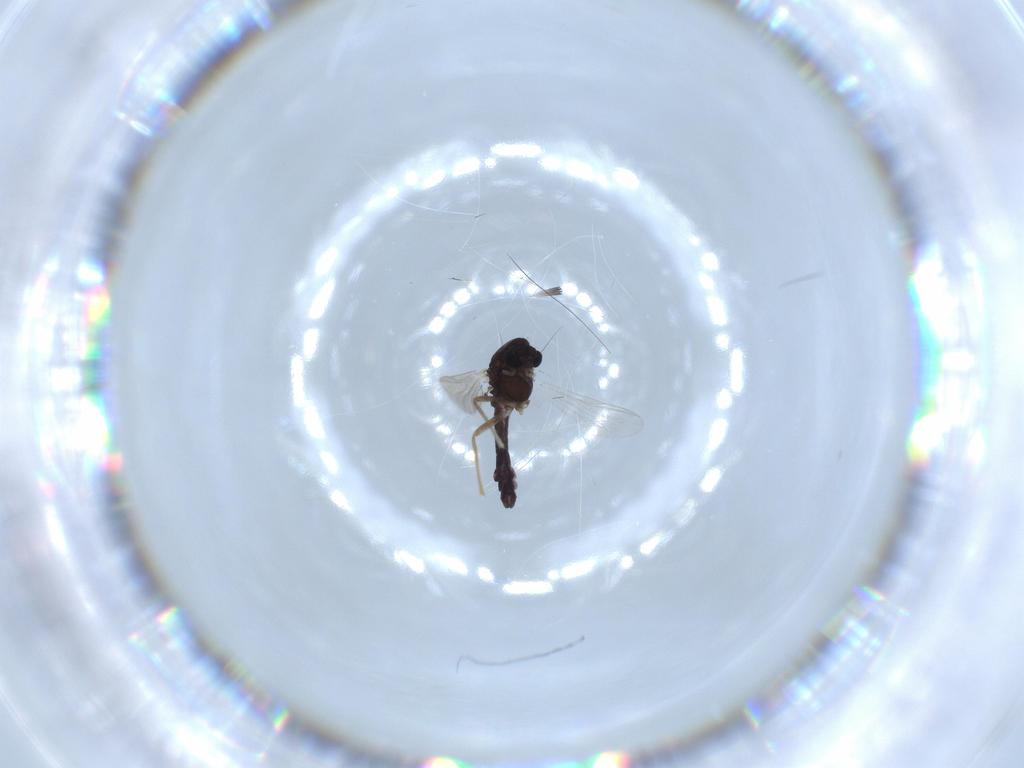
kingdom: Animalia
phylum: Arthropoda
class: Insecta
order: Diptera
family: Chironomidae
